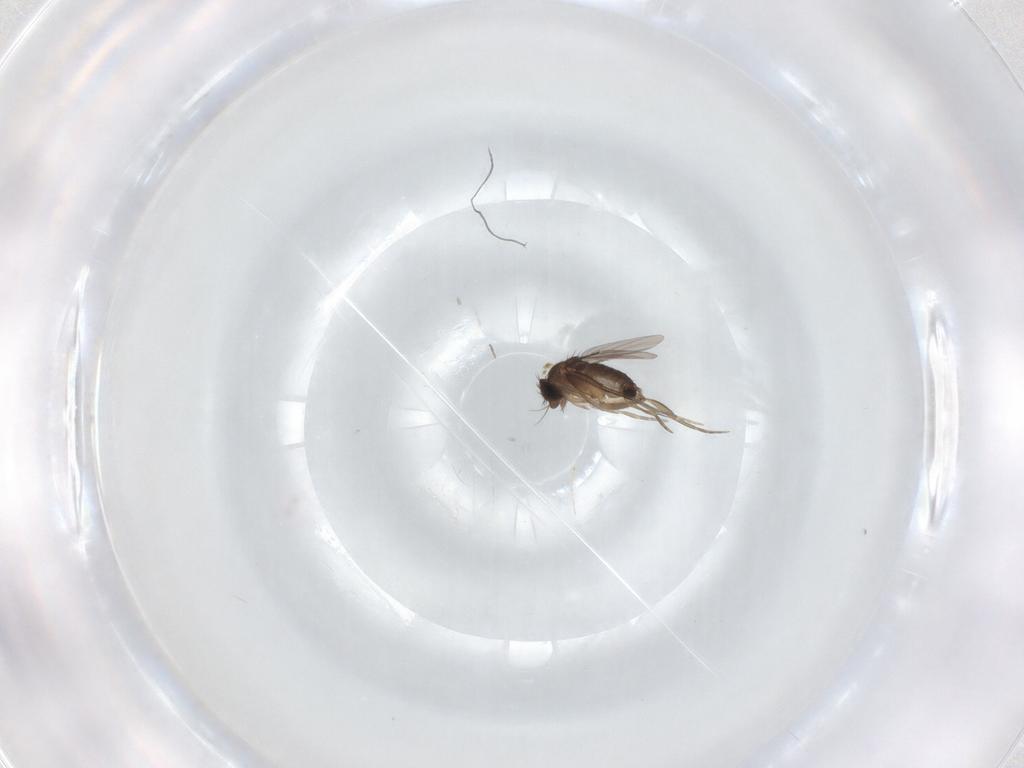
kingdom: Animalia
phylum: Arthropoda
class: Insecta
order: Diptera
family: Phoridae
